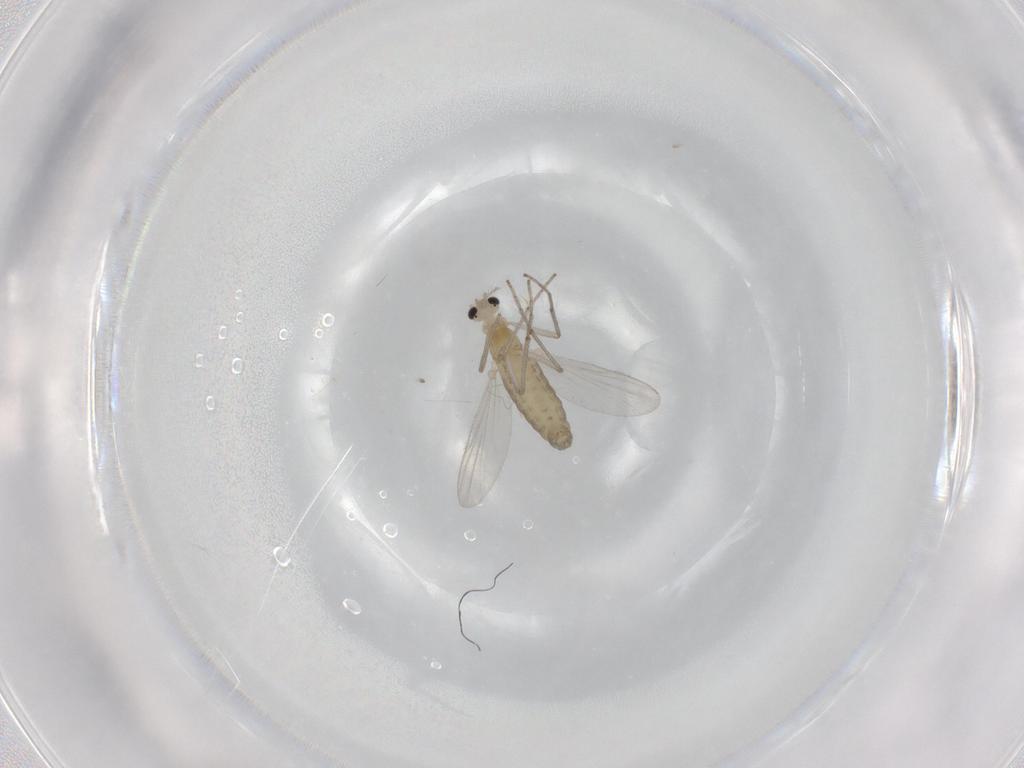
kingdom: Animalia
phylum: Arthropoda
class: Insecta
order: Diptera
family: Chironomidae
